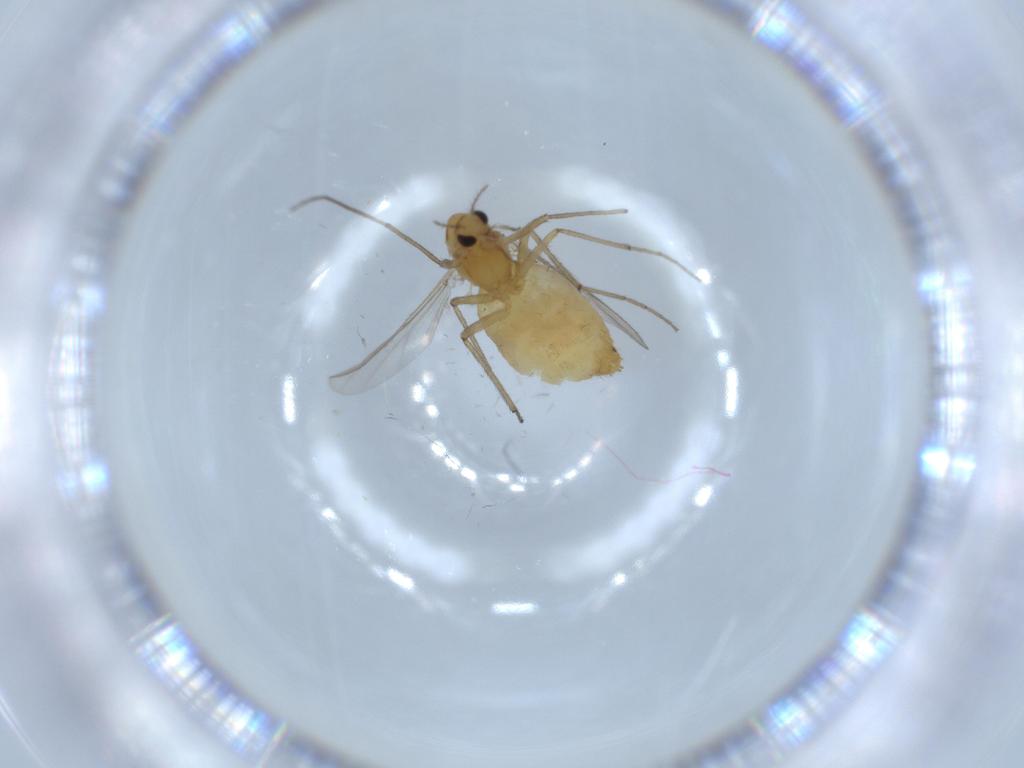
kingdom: Animalia
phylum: Arthropoda
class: Insecta
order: Diptera
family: Chironomidae
